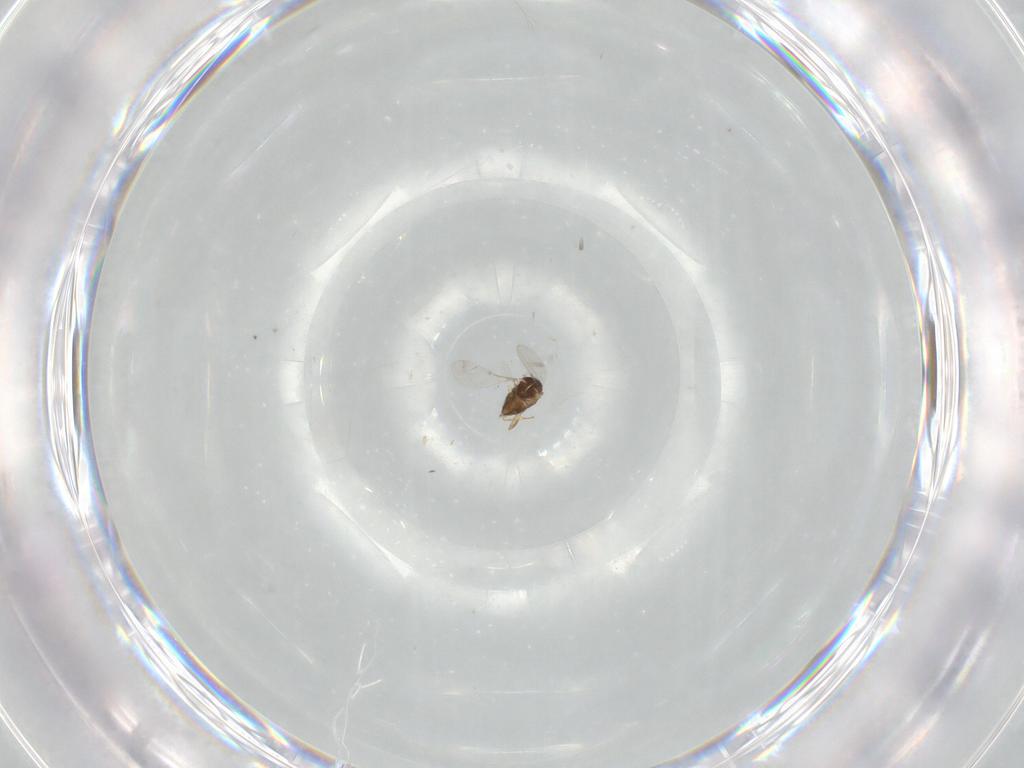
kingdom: Animalia
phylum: Arthropoda
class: Insecta
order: Hymenoptera
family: Encyrtidae
